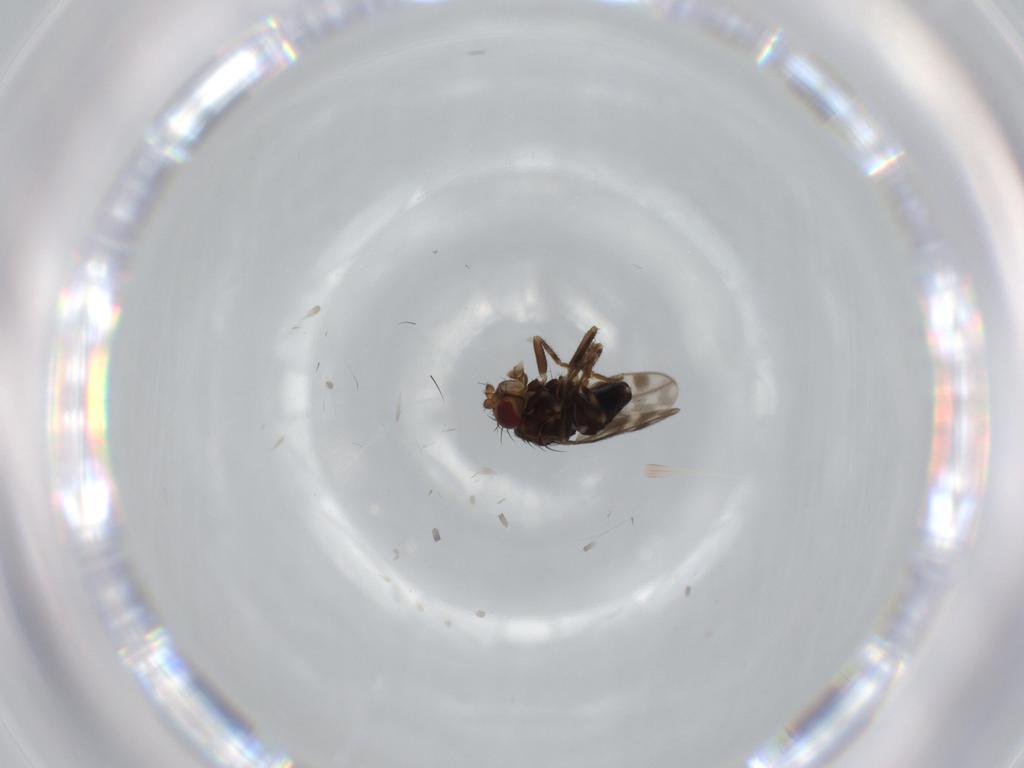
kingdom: Animalia
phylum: Arthropoda
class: Insecta
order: Diptera
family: Sphaeroceridae
